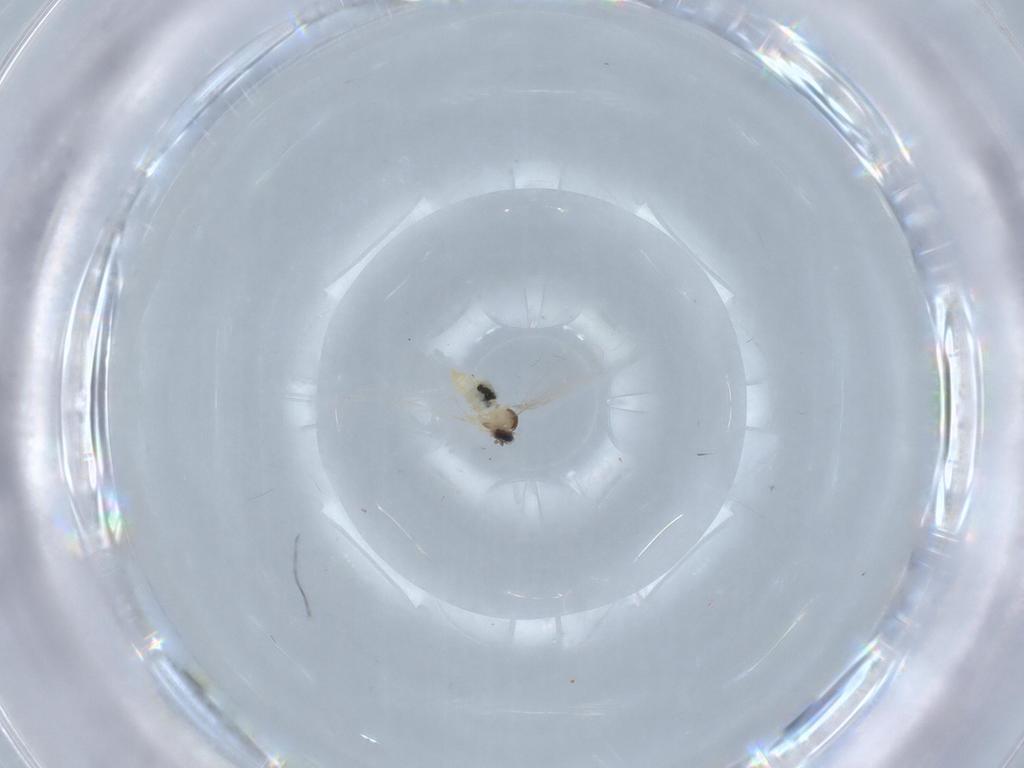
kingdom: Animalia
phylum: Arthropoda
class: Insecta
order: Diptera
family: Cecidomyiidae
